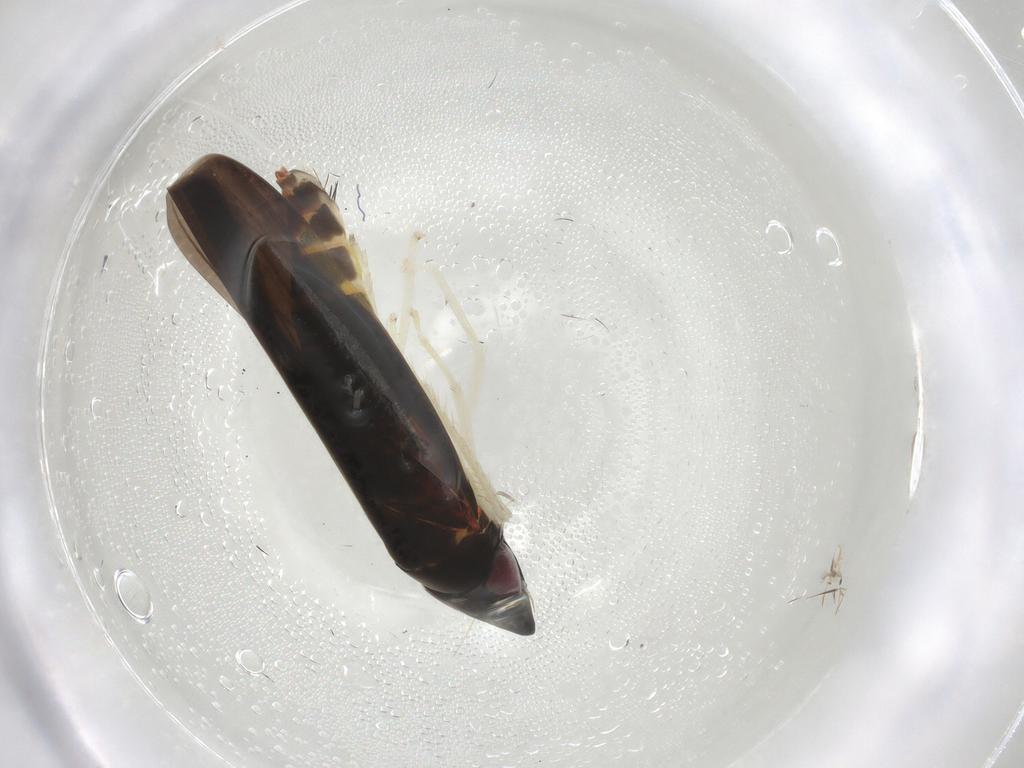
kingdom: Animalia
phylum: Arthropoda
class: Insecta
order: Hemiptera
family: Cicadellidae
